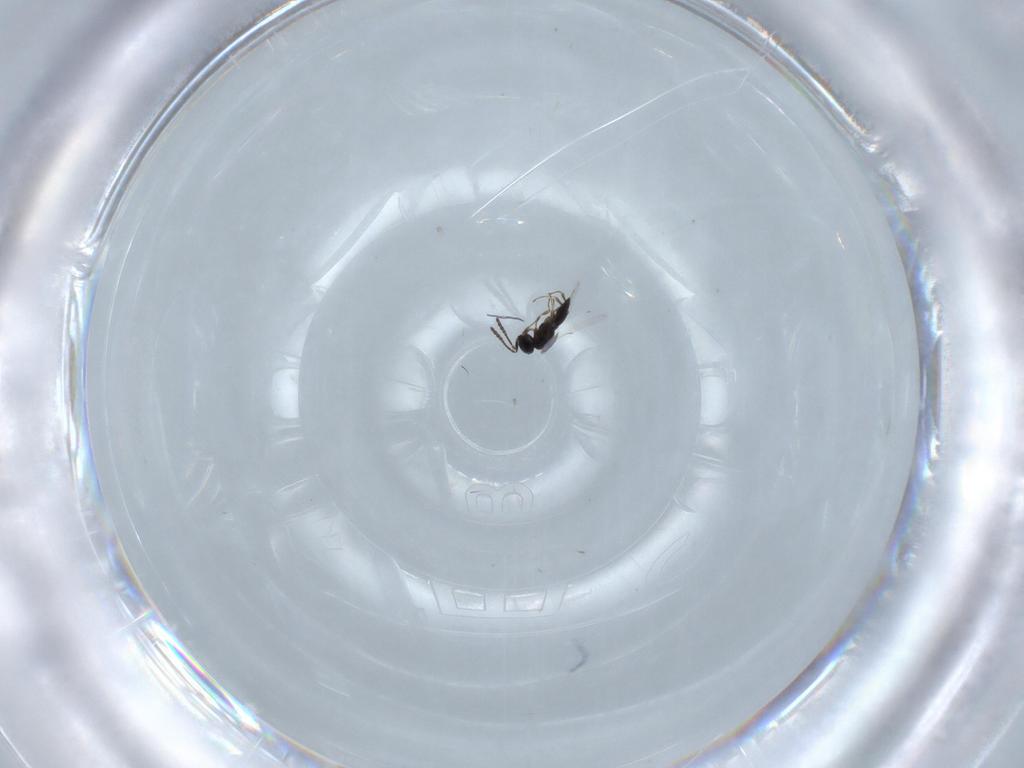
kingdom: Animalia
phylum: Arthropoda
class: Insecta
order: Hymenoptera
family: Scelionidae
